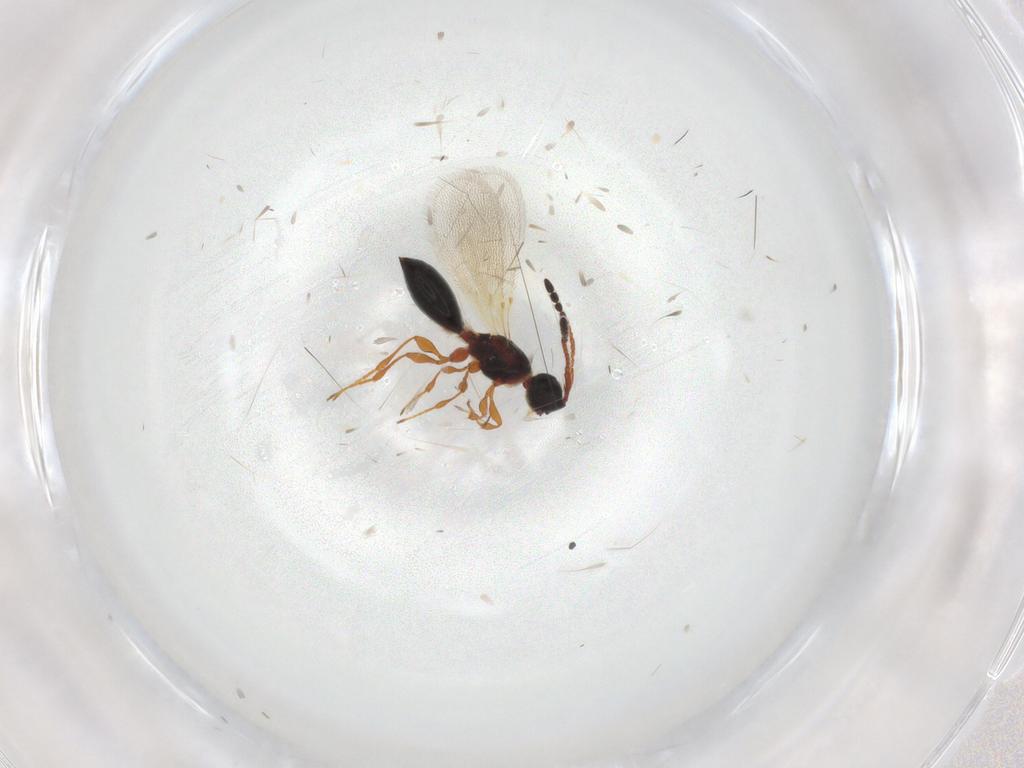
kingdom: Animalia
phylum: Arthropoda
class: Insecta
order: Hymenoptera
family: Diapriidae
